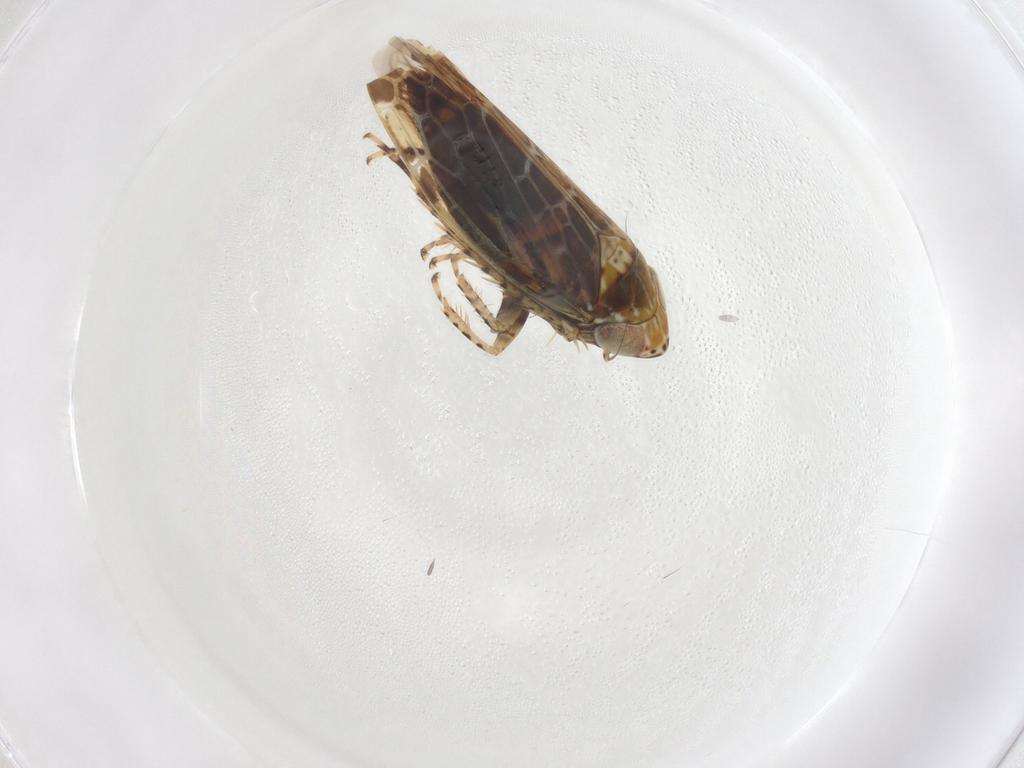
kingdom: Animalia
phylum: Arthropoda
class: Insecta
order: Hemiptera
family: Cicadellidae
